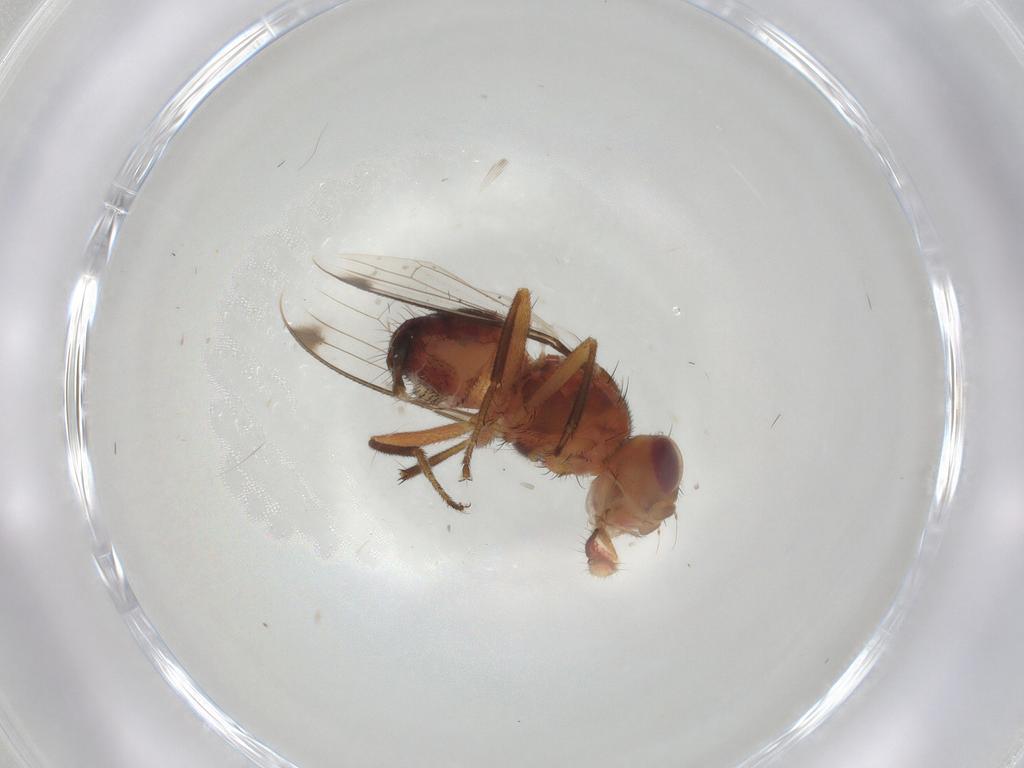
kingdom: Animalia
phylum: Arthropoda
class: Insecta
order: Diptera
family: Richardiidae
